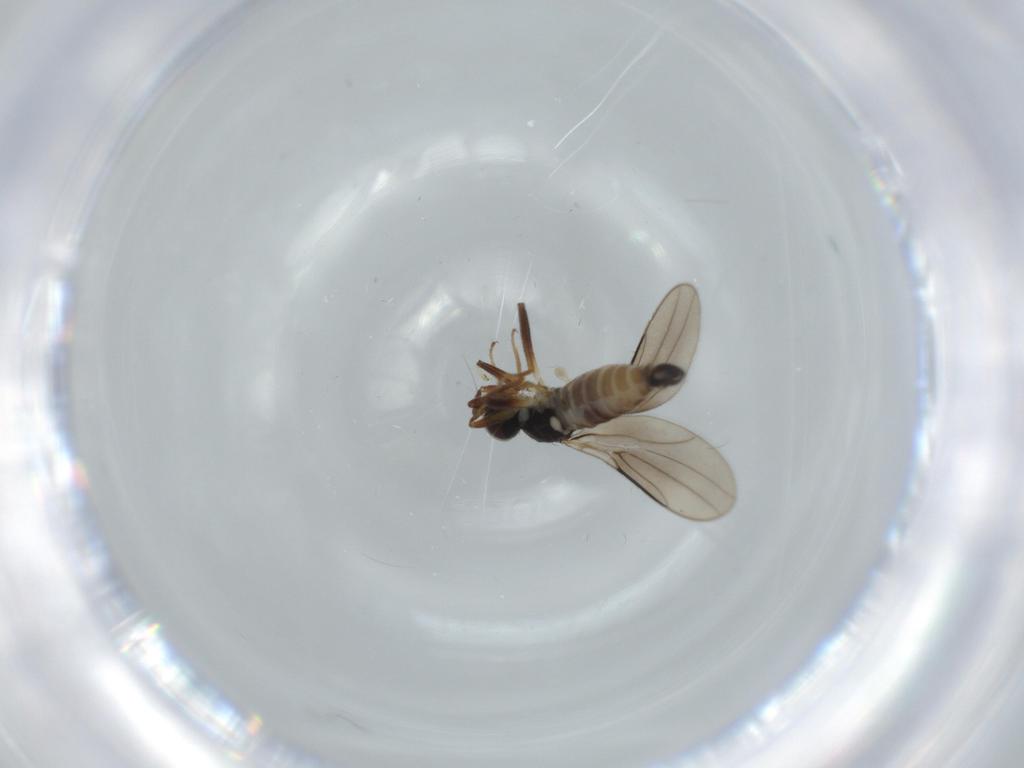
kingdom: Animalia
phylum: Arthropoda
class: Insecta
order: Diptera
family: Hybotidae
